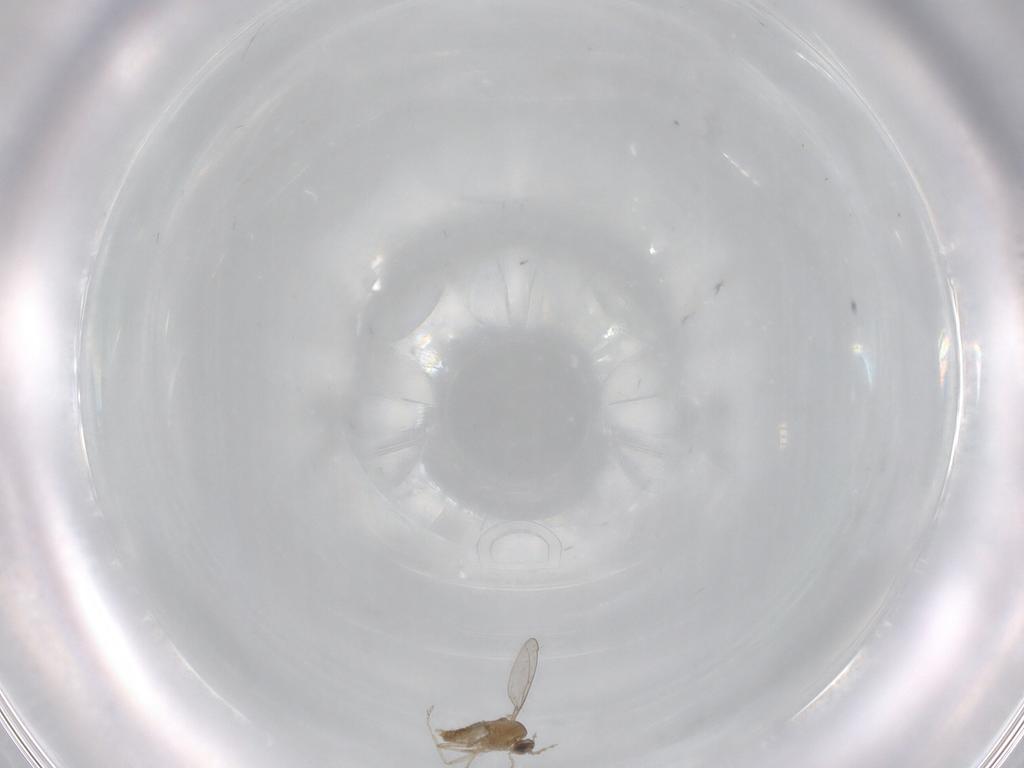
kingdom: Animalia
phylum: Arthropoda
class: Insecta
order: Diptera
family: Cecidomyiidae
